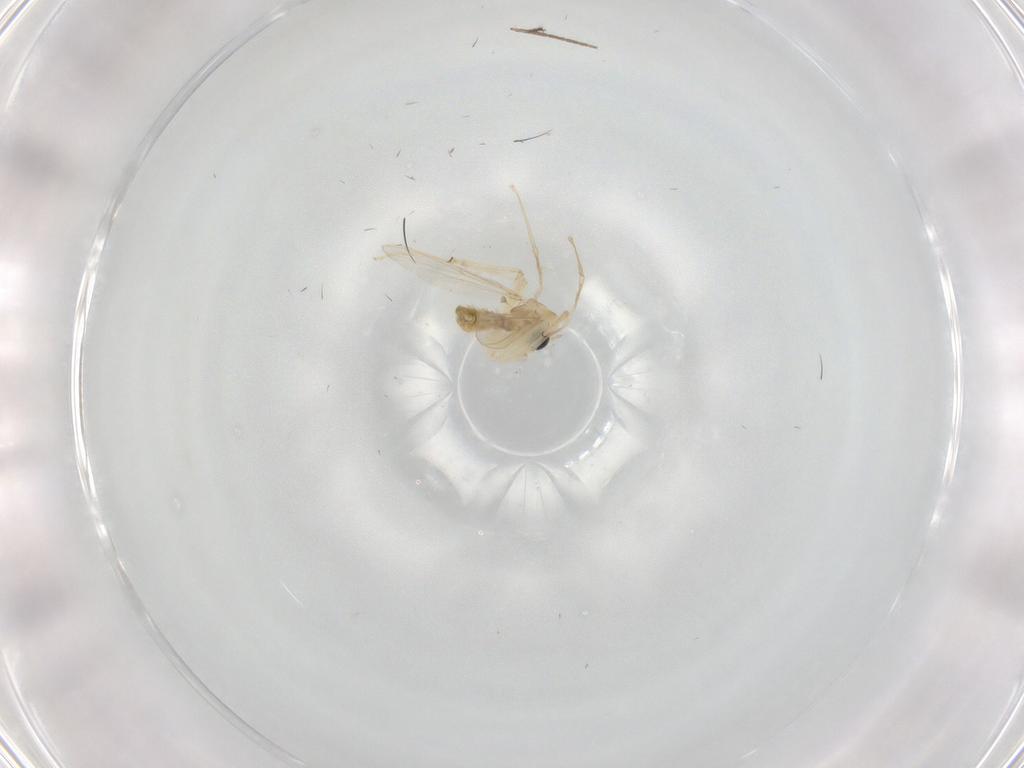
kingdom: Animalia
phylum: Arthropoda
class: Insecta
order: Diptera
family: Chironomidae
